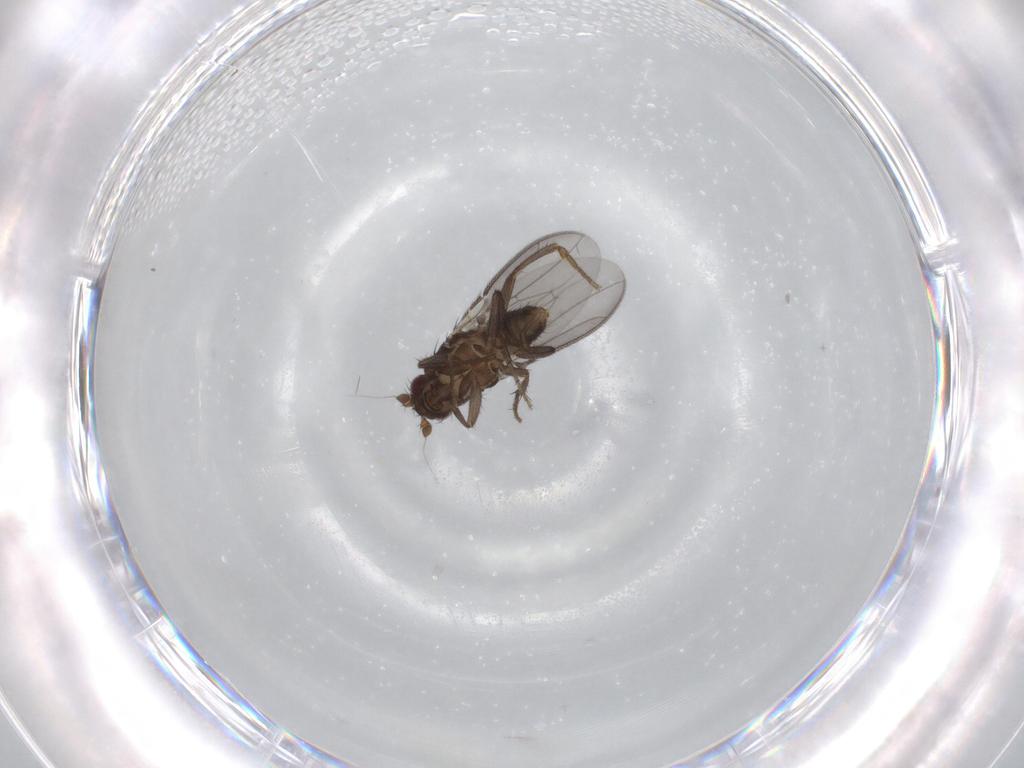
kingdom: Animalia
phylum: Arthropoda
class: Insecta
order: Diptera
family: Sphaeroceridae
